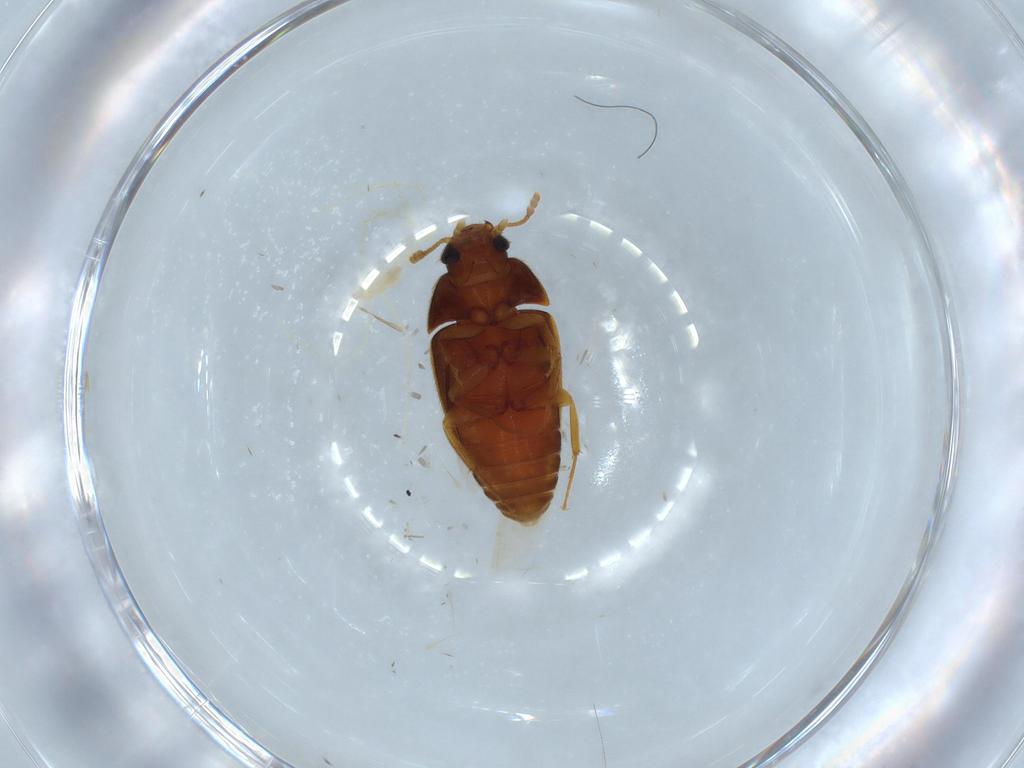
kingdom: Animalia
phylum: Arthropoda
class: Insecta
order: Coleoptera
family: Mycetophagidae
